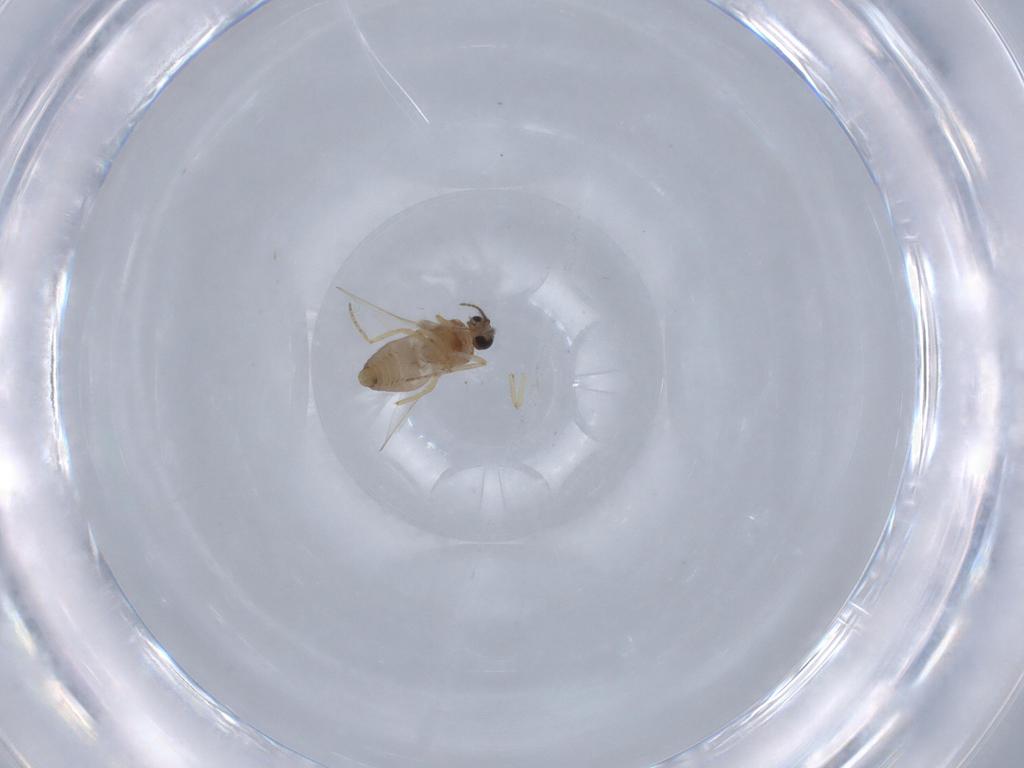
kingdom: Animalia
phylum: Arthropoda
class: Insecta
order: Diptera
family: Ceratopogonidae
